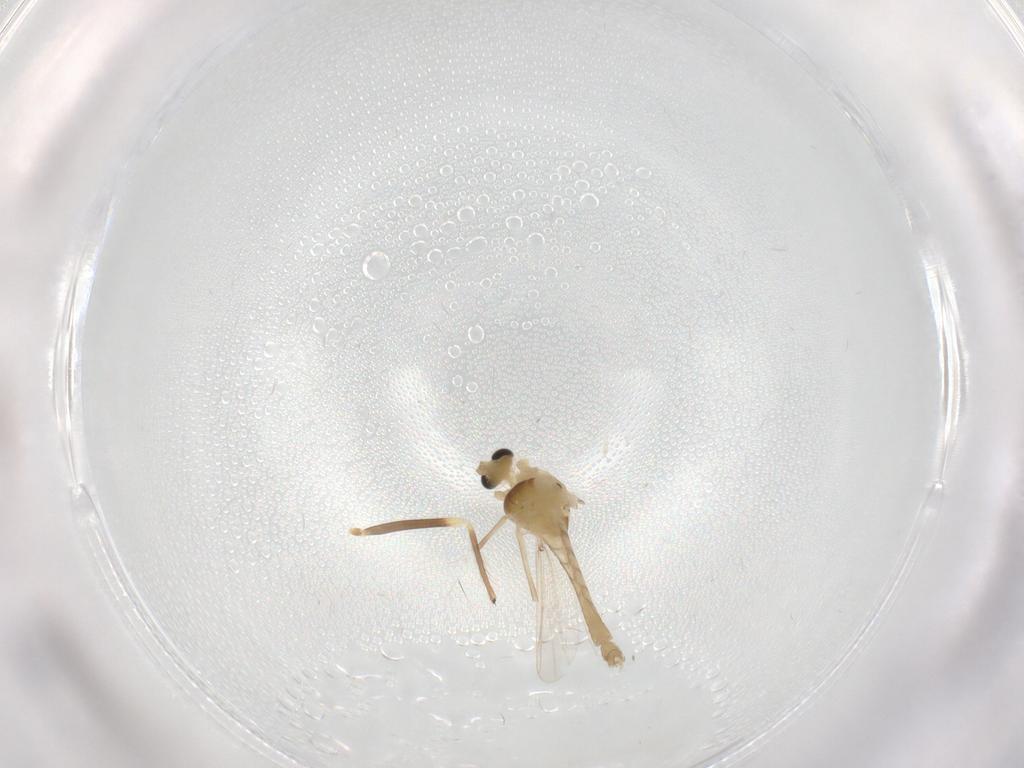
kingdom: Animalia
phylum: Arthropoda
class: Insecta
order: Diptera
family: Chironomidae
